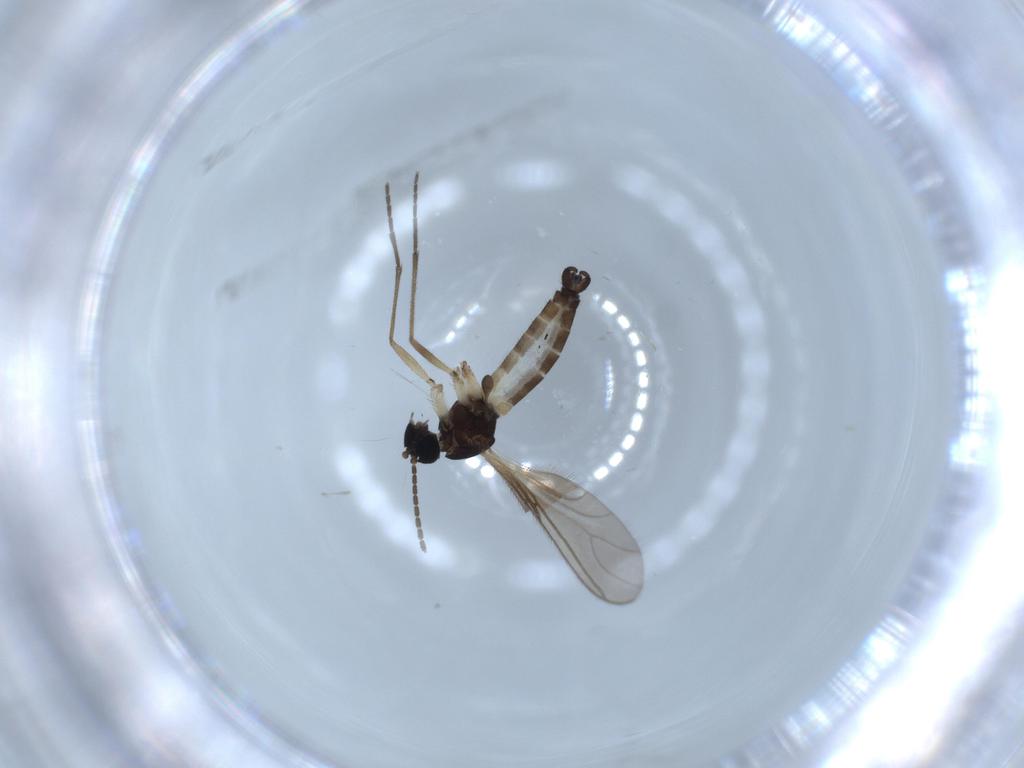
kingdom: Animalia
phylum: Arthropoda
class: Insecta
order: Diptera
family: Sciaridae
